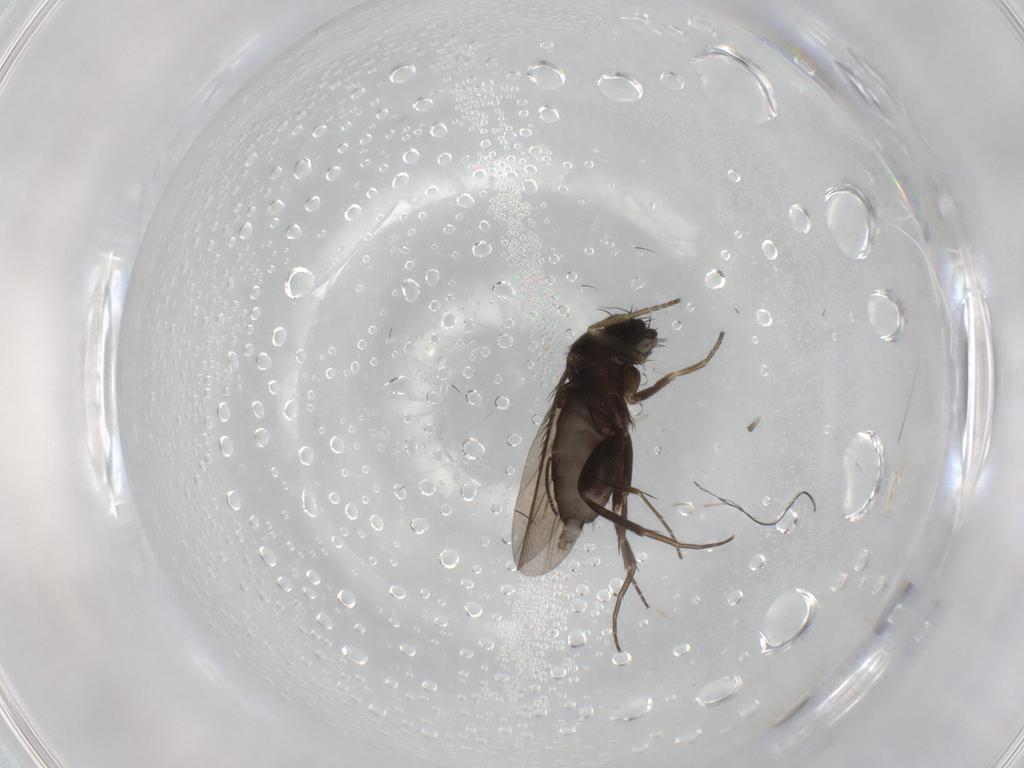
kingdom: Animalia
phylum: Arthropoda
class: Insecta
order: Diptera
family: Phoridae
